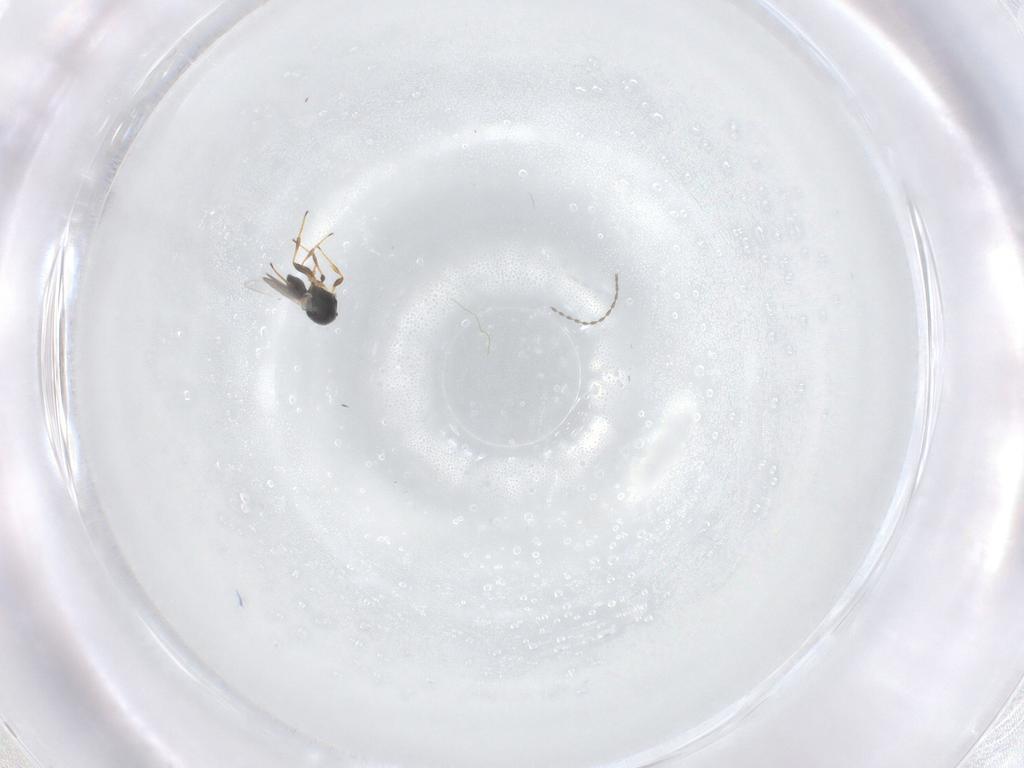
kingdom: Animalia
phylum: Arthropoda
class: Insecta
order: Hymenoptera
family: Platygastridae
